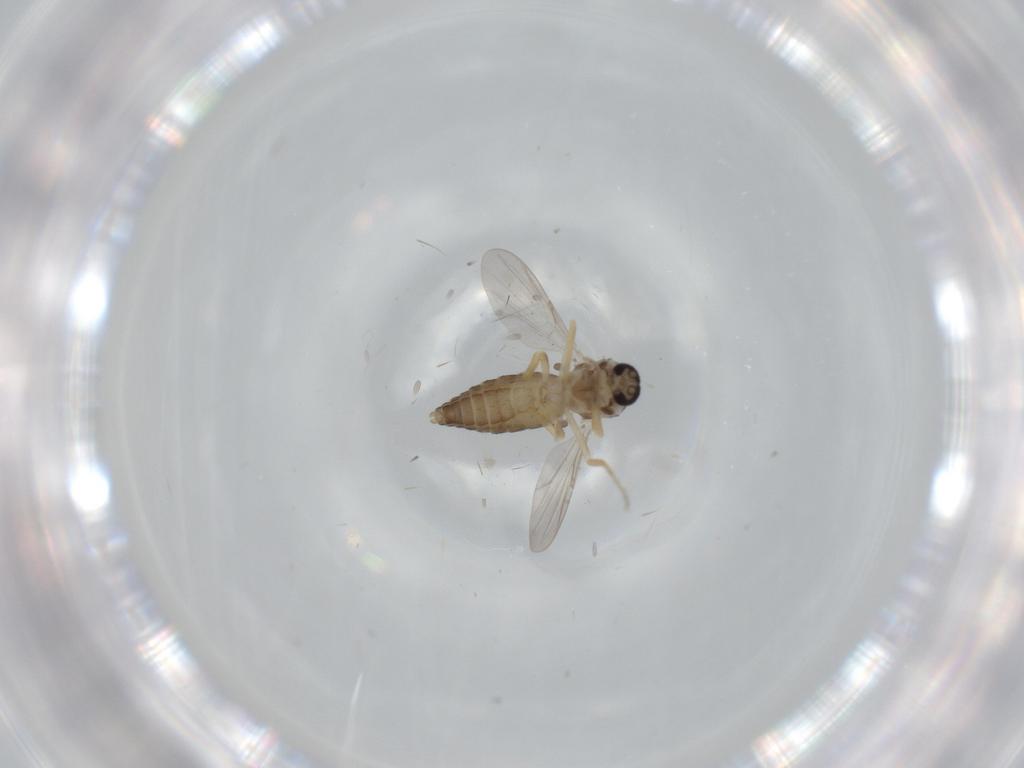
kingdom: Animalia
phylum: Arthropoda
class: Insecta
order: Diptera
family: Ceratopogonidae
